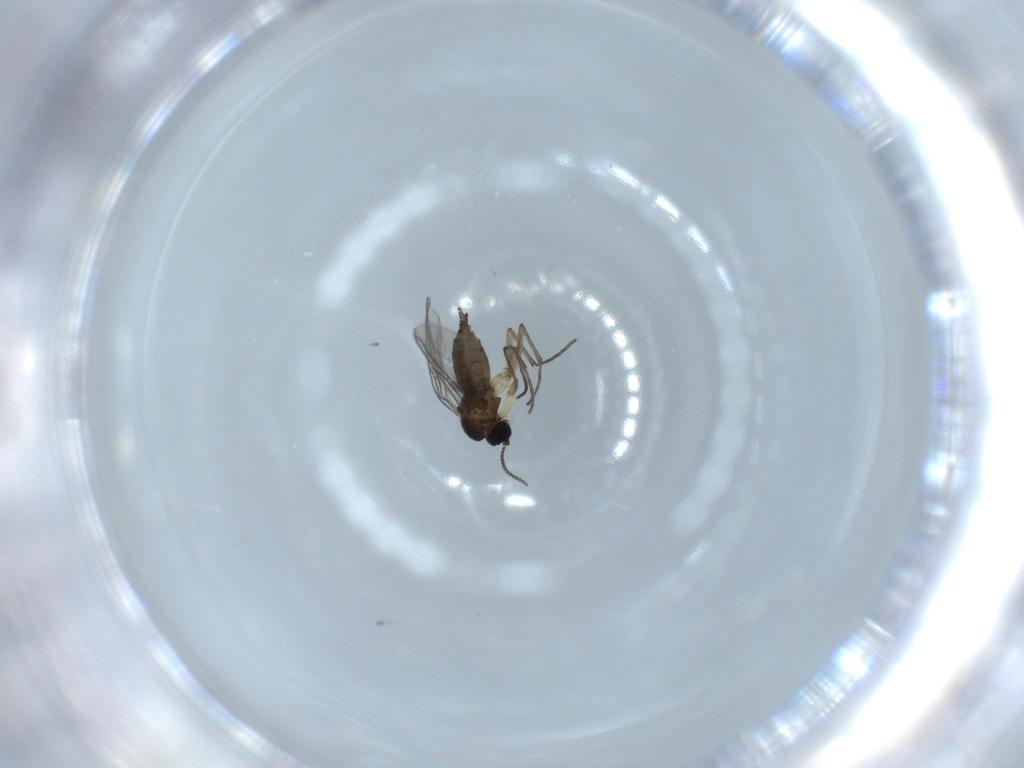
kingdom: Animalia
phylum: Arthropoda
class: Insecta
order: Diptera
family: Sciaridae
